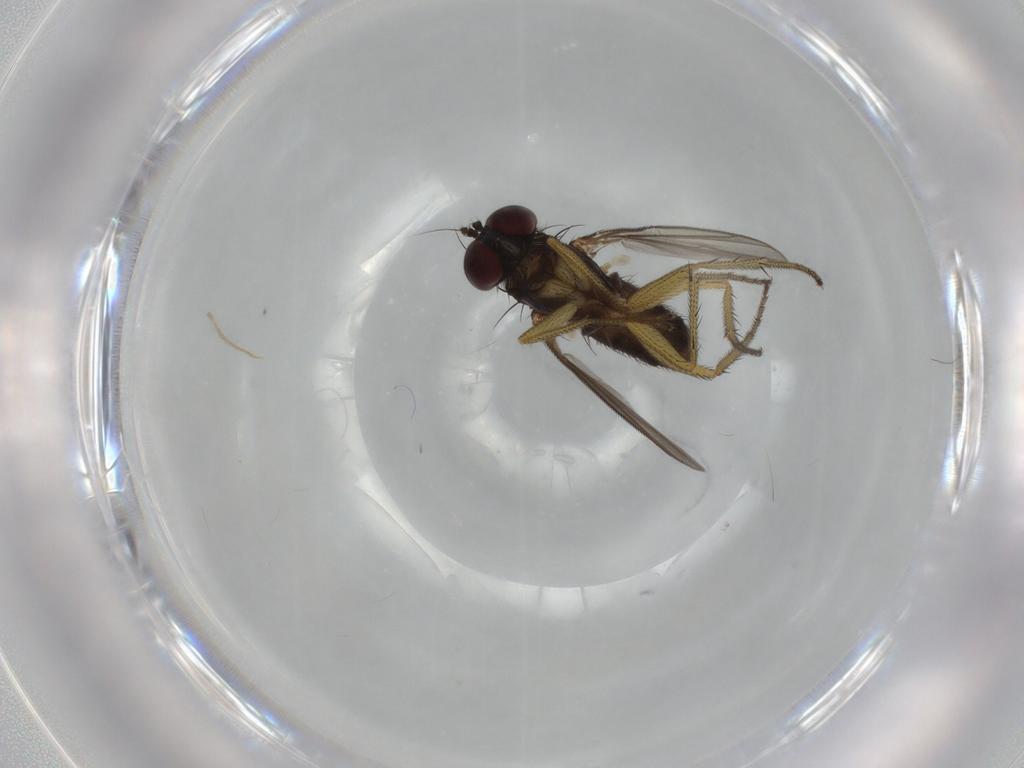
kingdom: Animalia
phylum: Arthropoda
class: Insecta
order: Diptera
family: Dolichopodidae
